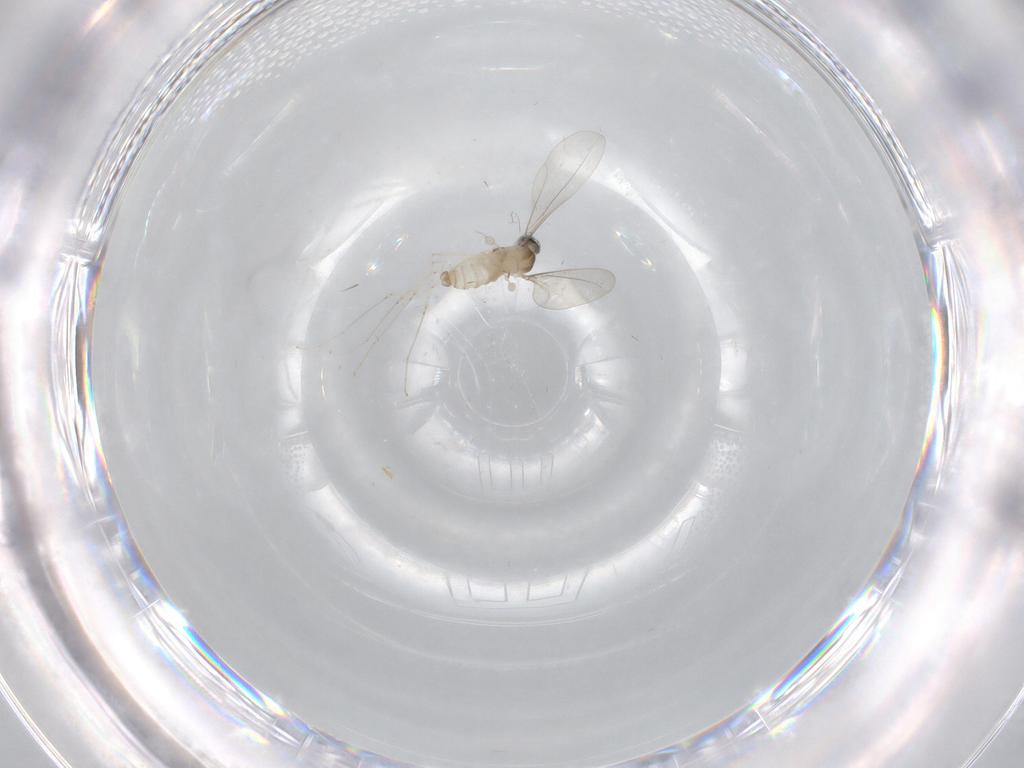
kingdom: Animalia
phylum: Arthropoda
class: Insecta
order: Diptera
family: Cecidomyiidae
